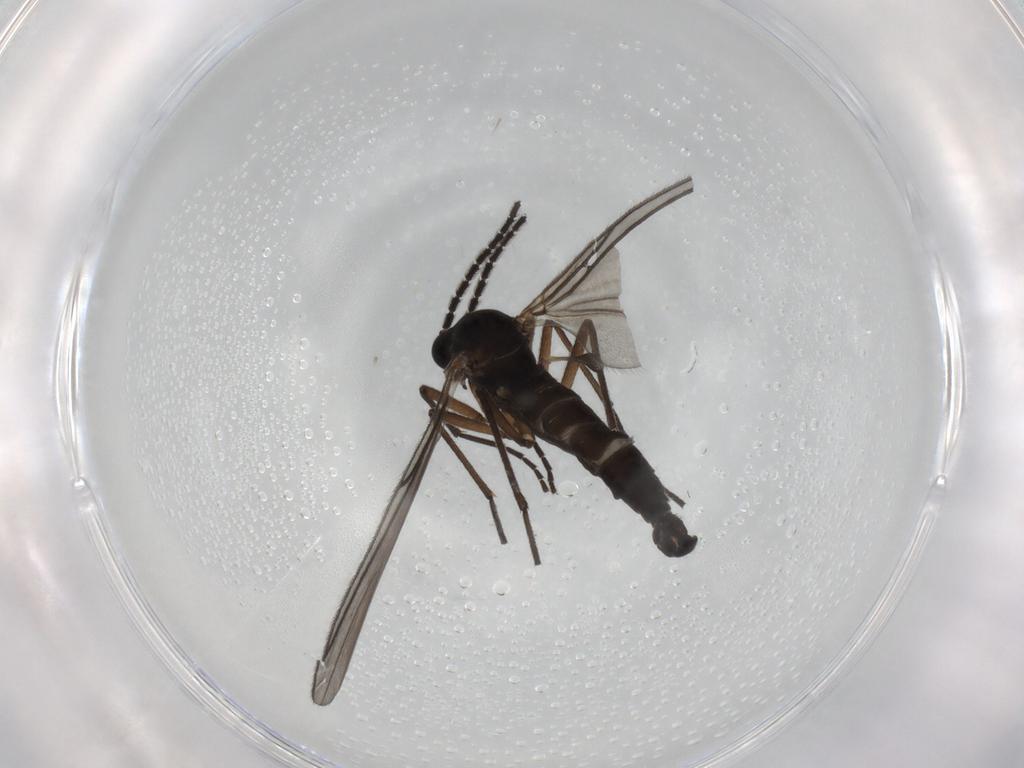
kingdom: Animalia
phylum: Arthropoda
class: Insecta
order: Diptera
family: Sciaridae
